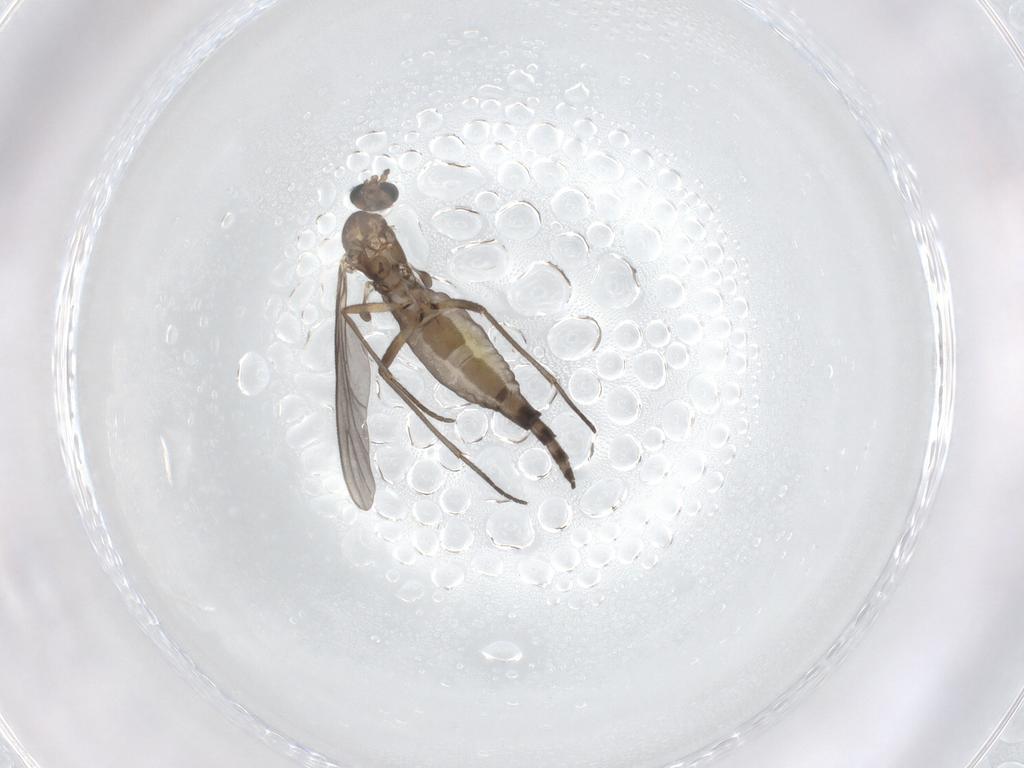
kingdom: Animalia
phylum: Arthropoda
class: Insecta
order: Diptera
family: Sciaridae
